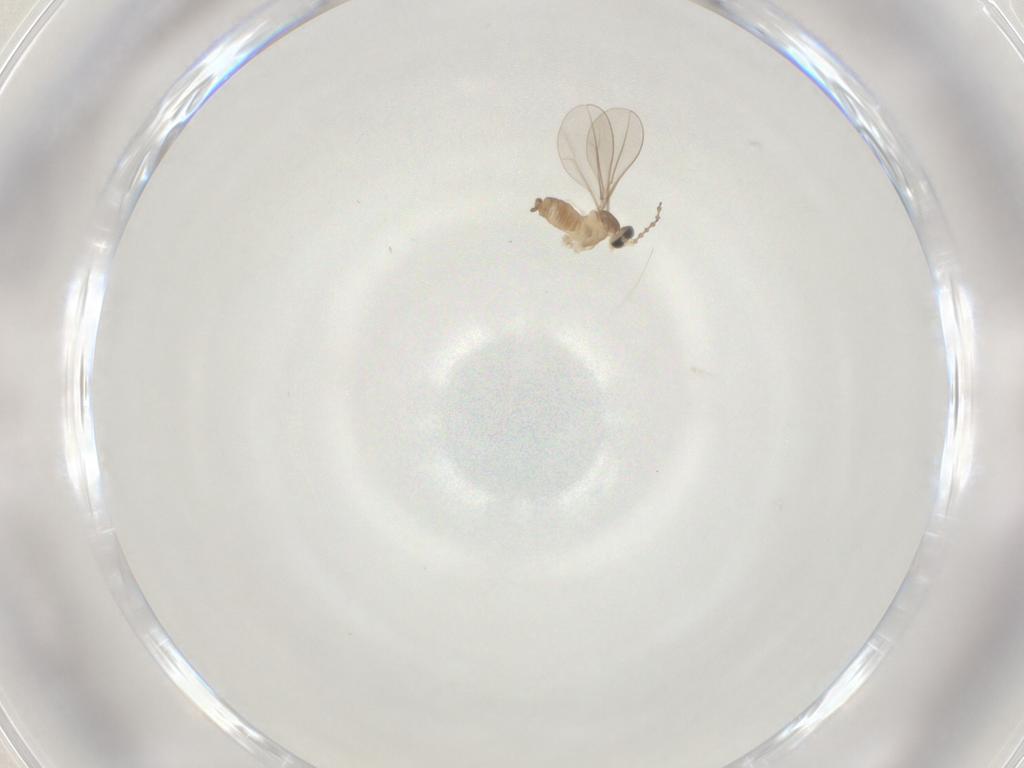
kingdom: Animalia
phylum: Arthropoda
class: Insecta
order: Diptera
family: Cecidomyiidae
